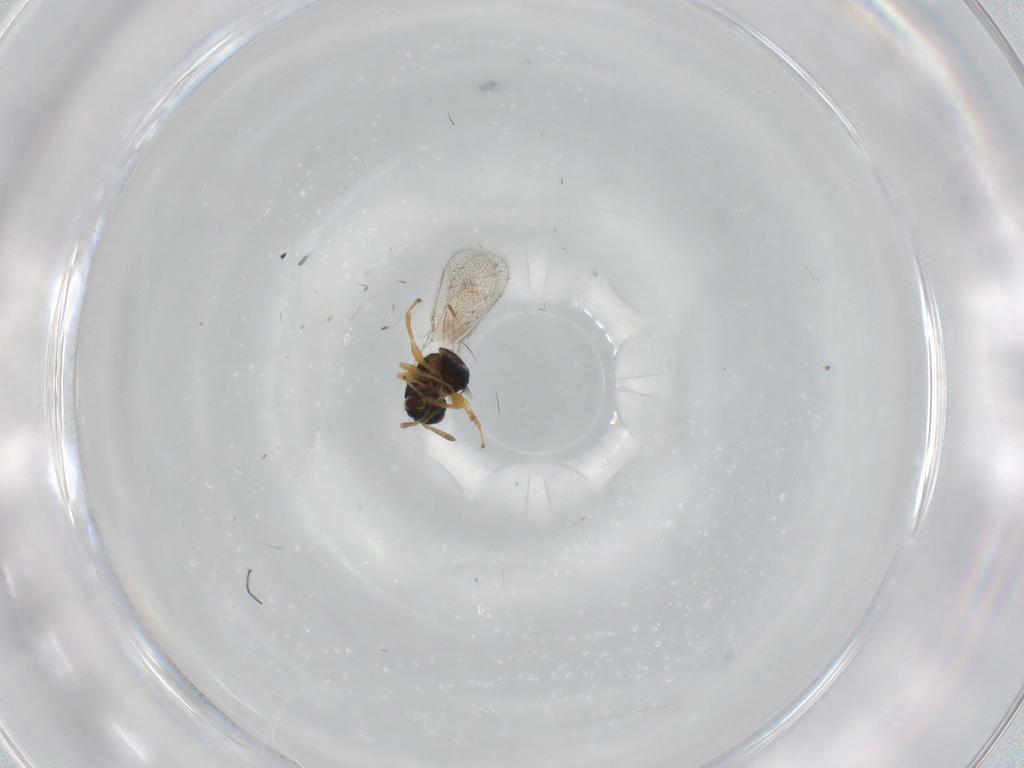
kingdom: Animalia
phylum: Arthropoda
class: Insecta
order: Hymenoptera
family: Torymidae
